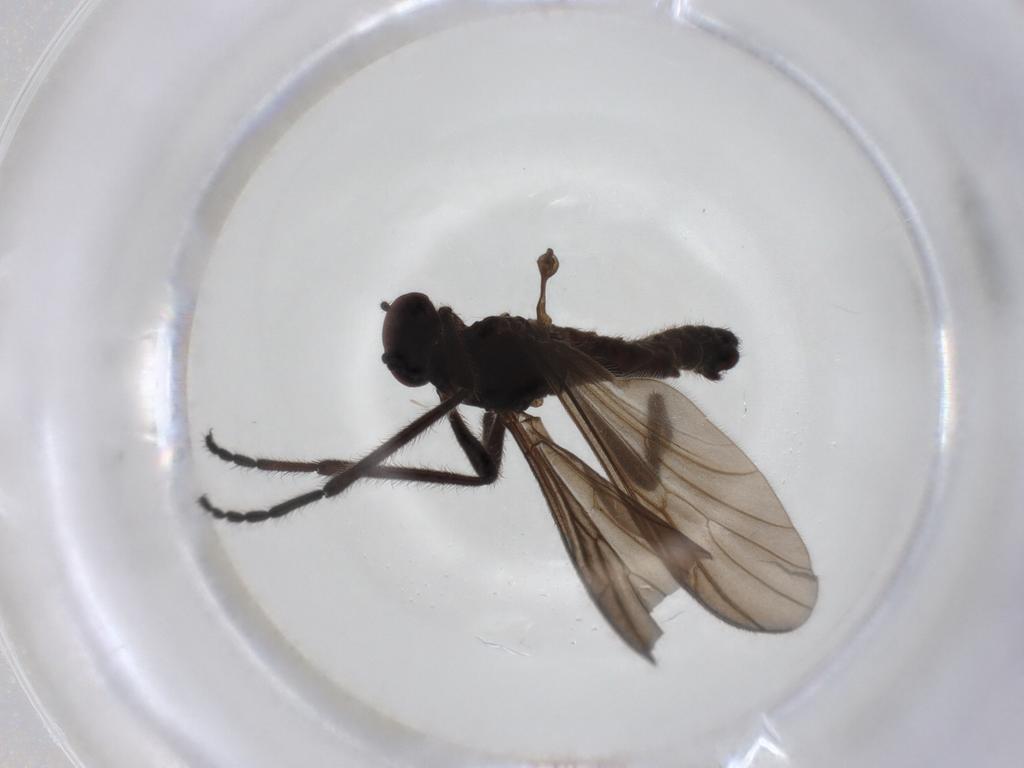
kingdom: Animalia
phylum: Arthropoda
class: Insecta
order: Diptera
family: Bibionidae
